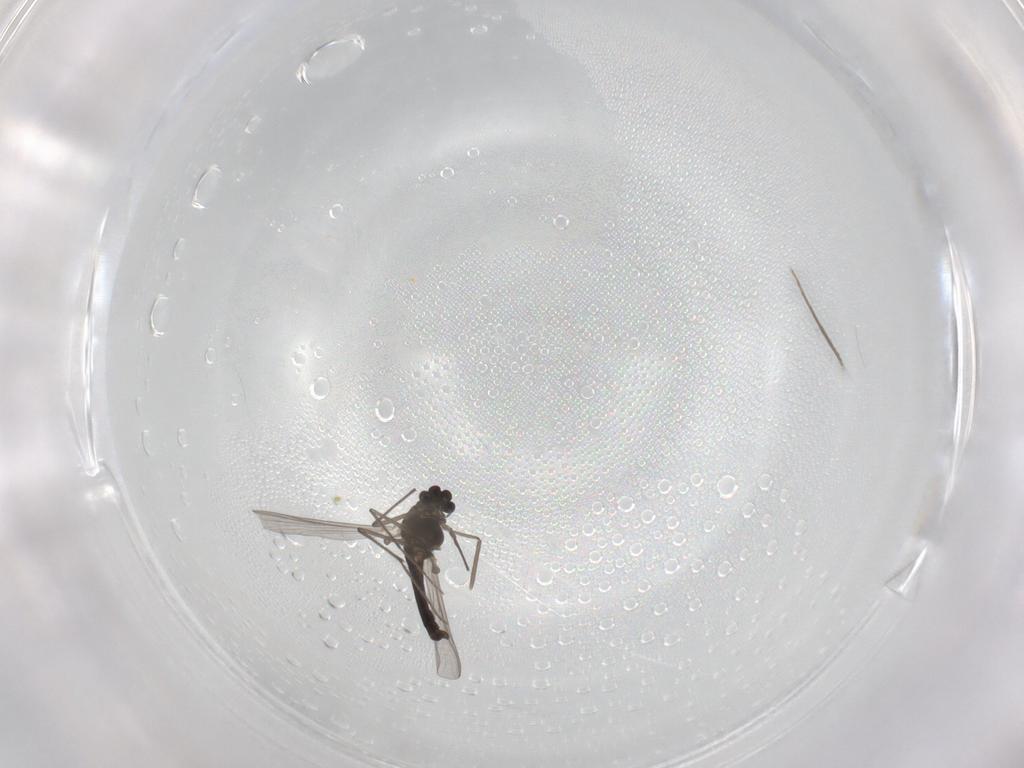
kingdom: Animalia
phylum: Arthropoda
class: Insecta
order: Diptera
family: Chironomidae
